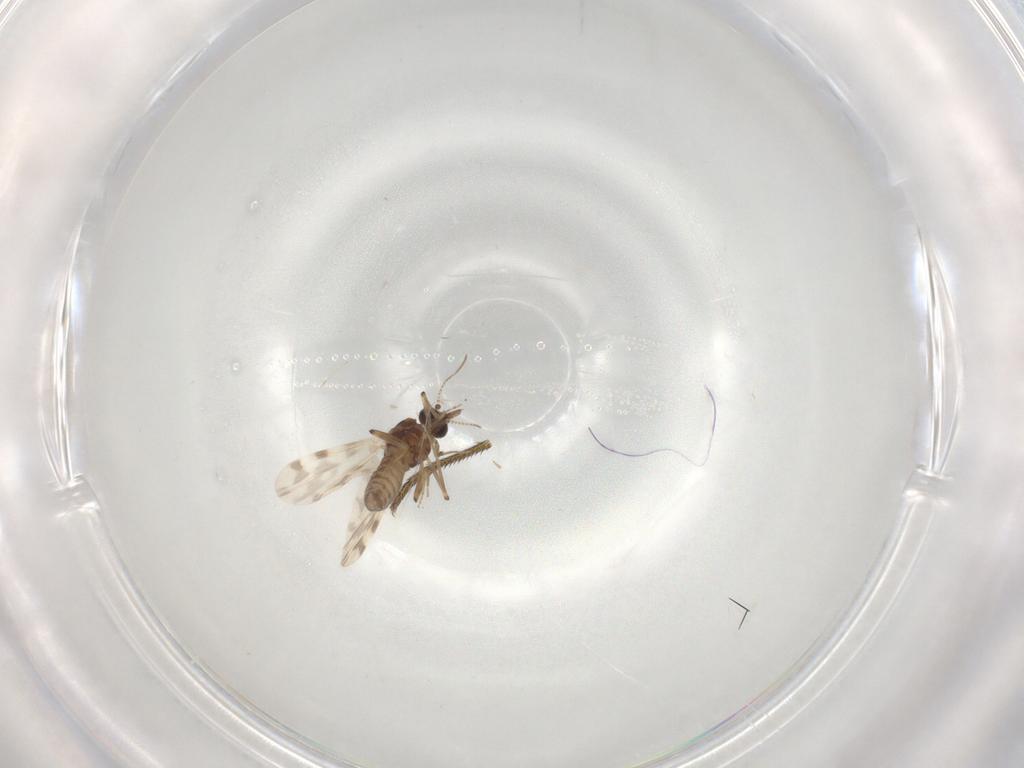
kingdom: Animalia
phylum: Arthropoda
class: Insecta
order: Diptera
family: Muscidae
